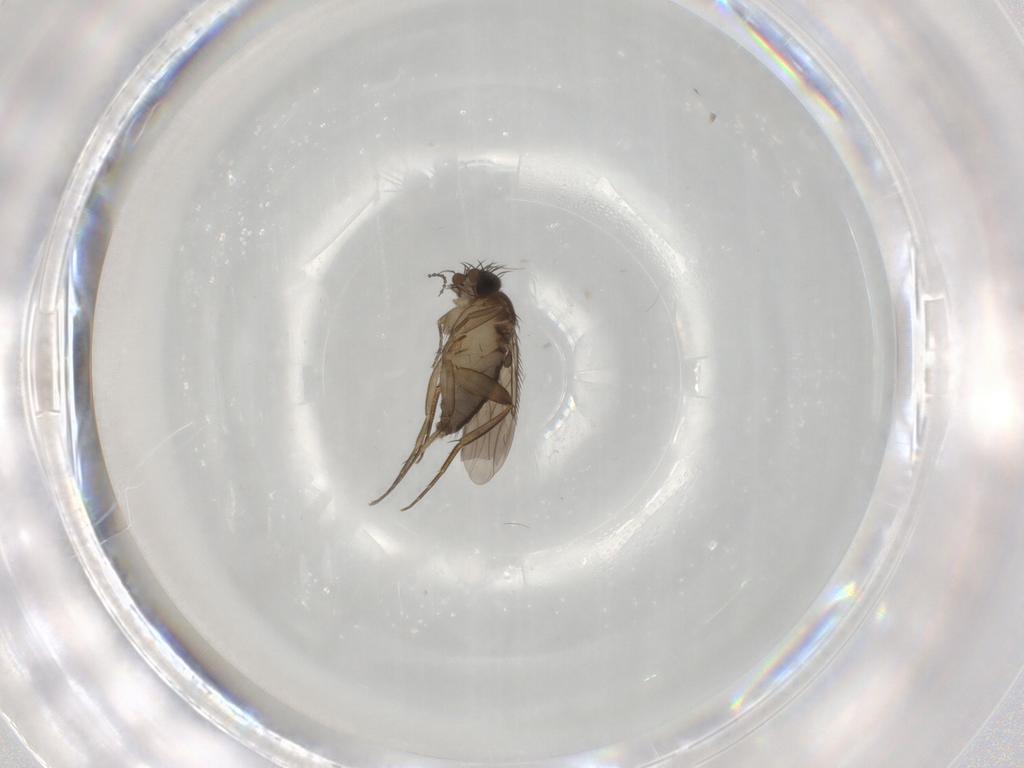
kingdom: Animalia
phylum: Arthropoda
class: Insecta
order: Diptera
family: Phoridae
